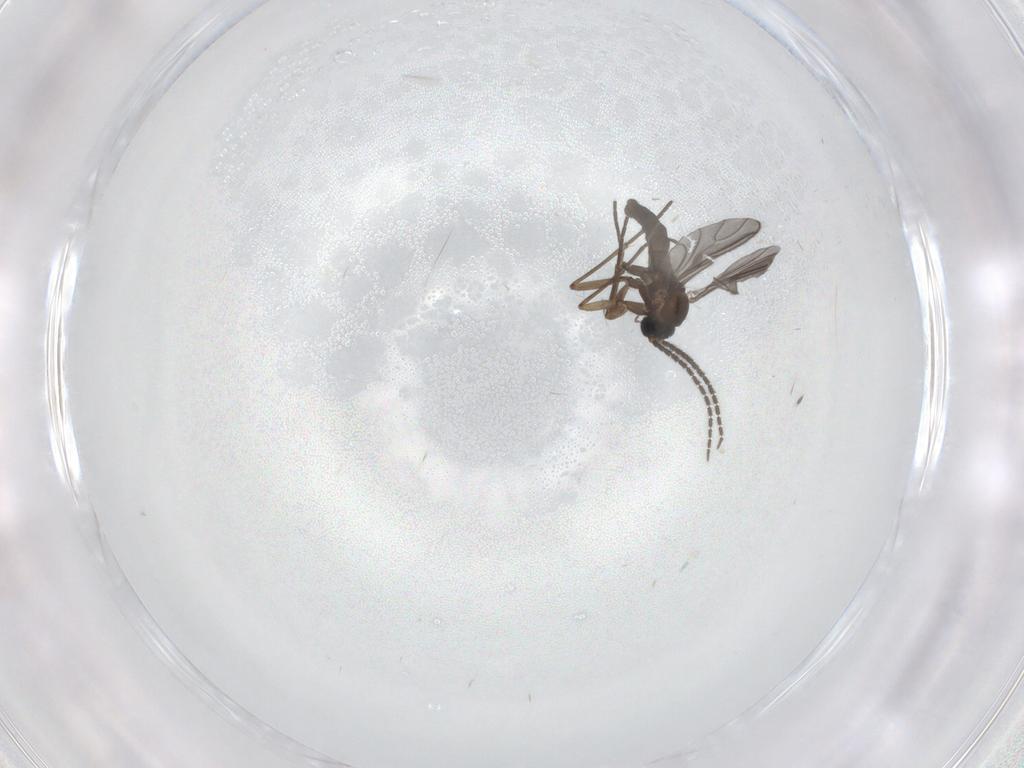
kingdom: Animalia
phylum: Arthropoda
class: Insecta
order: Diptera
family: Sciaridae
